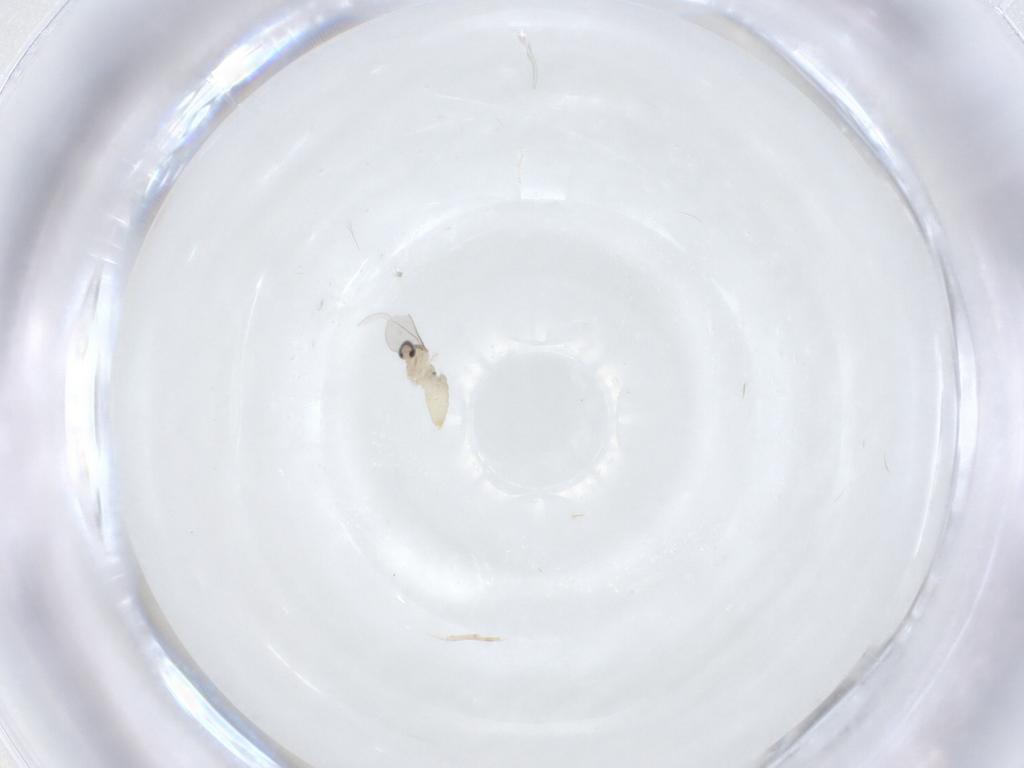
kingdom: Animalia
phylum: Arthropoda
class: Insecta
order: Diptera
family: Cecidomyiidae
